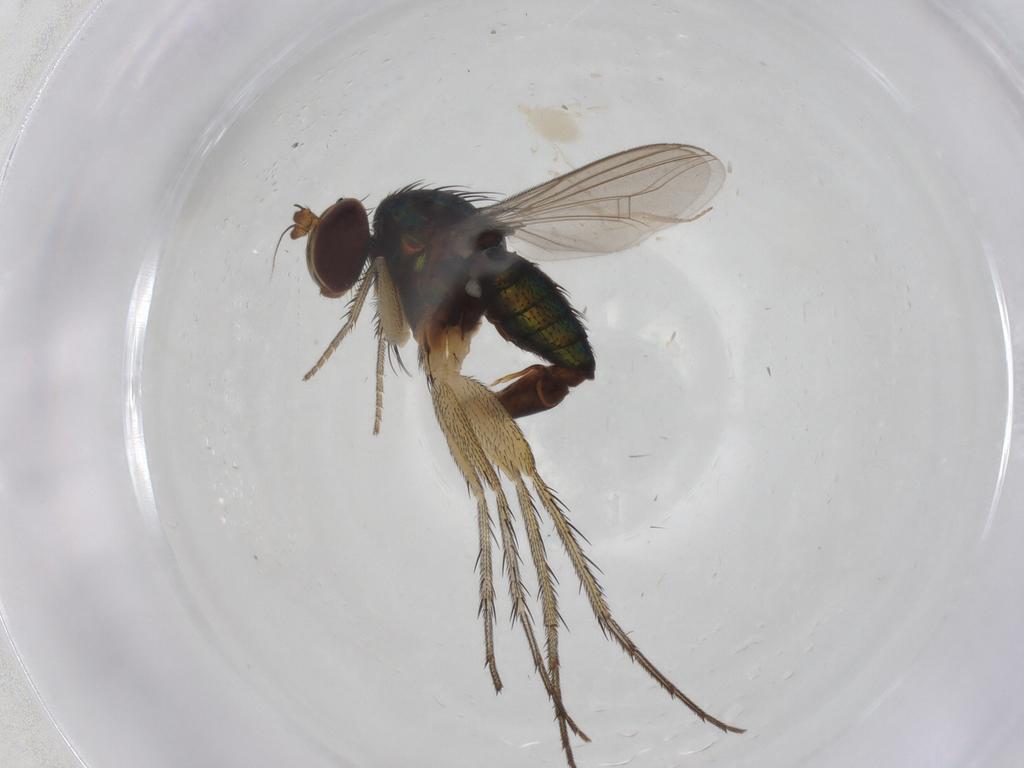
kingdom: Animalia
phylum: Arthropoda
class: Insecta
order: Diptera
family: Dolichopodidae
